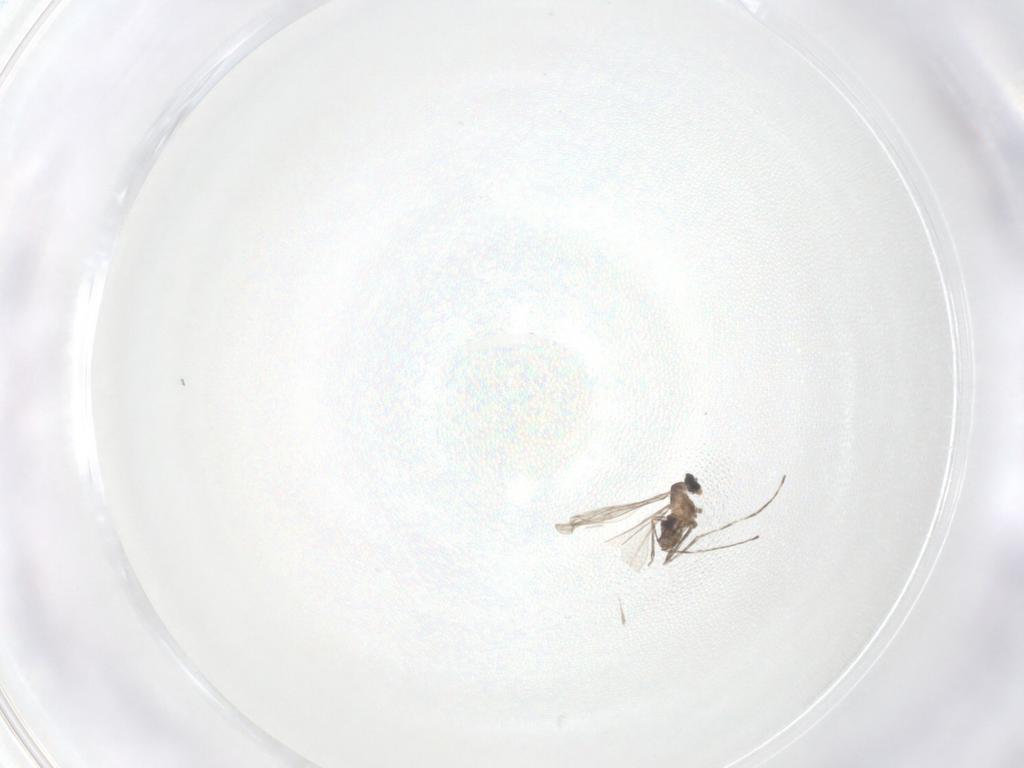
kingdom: Animalia
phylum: Arthropoda
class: Insecta
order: Diptera
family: Cecidomyiidae
